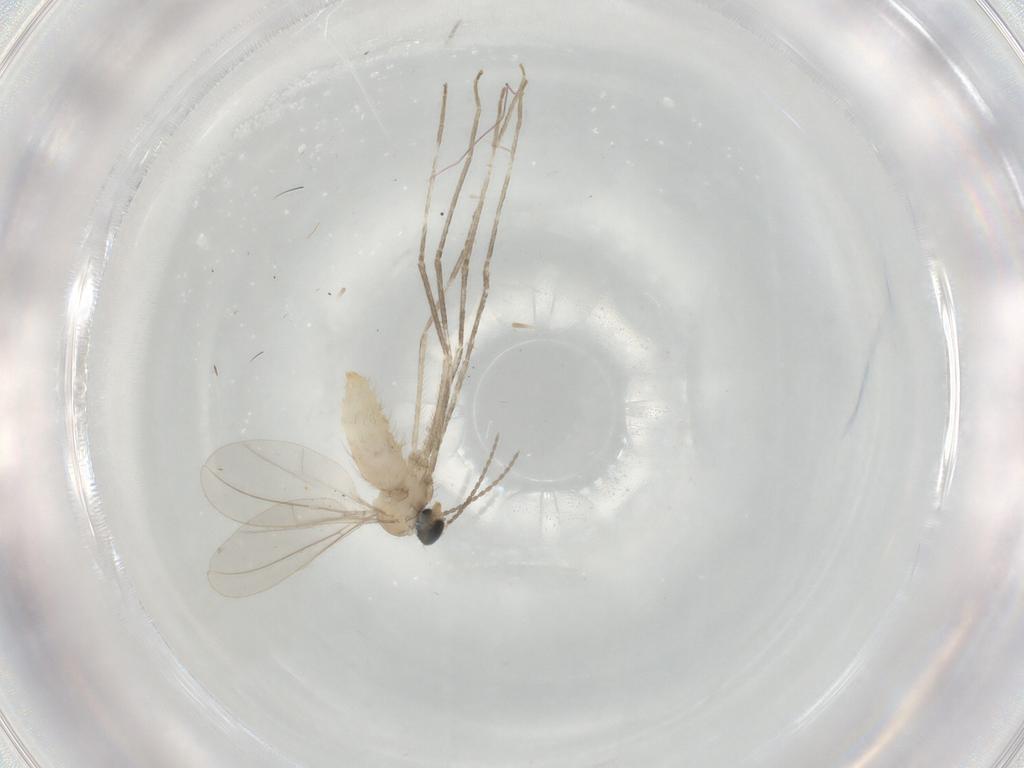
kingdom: Animalia
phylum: Arthropoda
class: Insecta
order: Diptera
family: Cecidomyiidae
